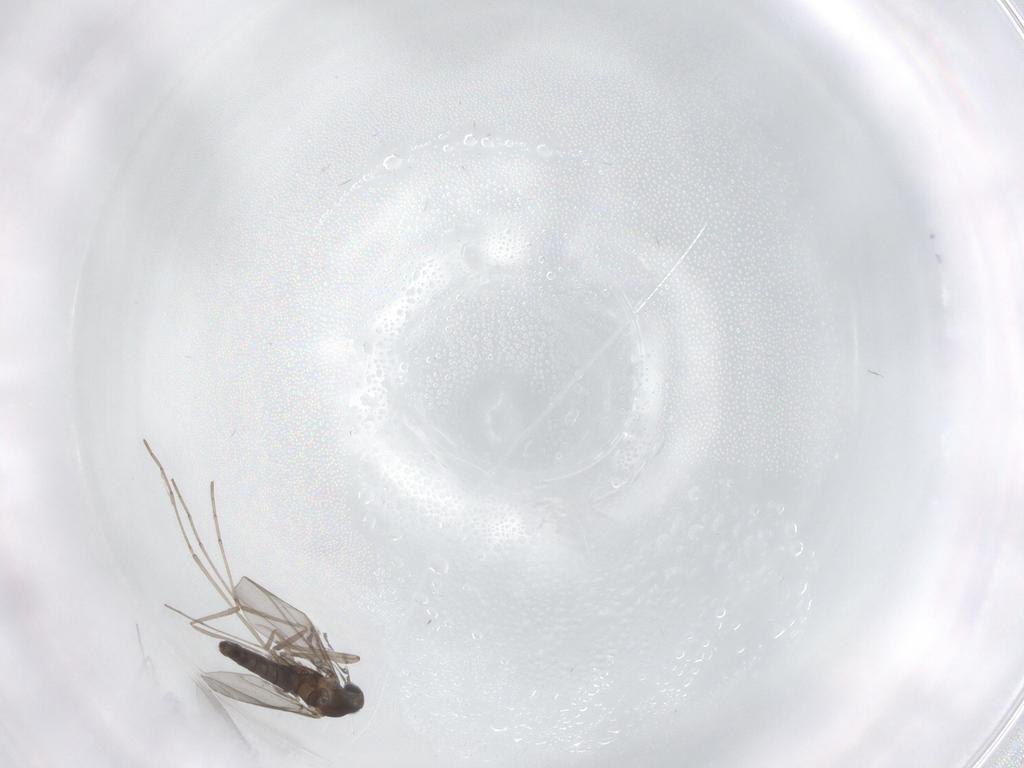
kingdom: Animalia
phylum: Arthropoda
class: Insecta
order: Diptera
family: Cecidomyiidae
